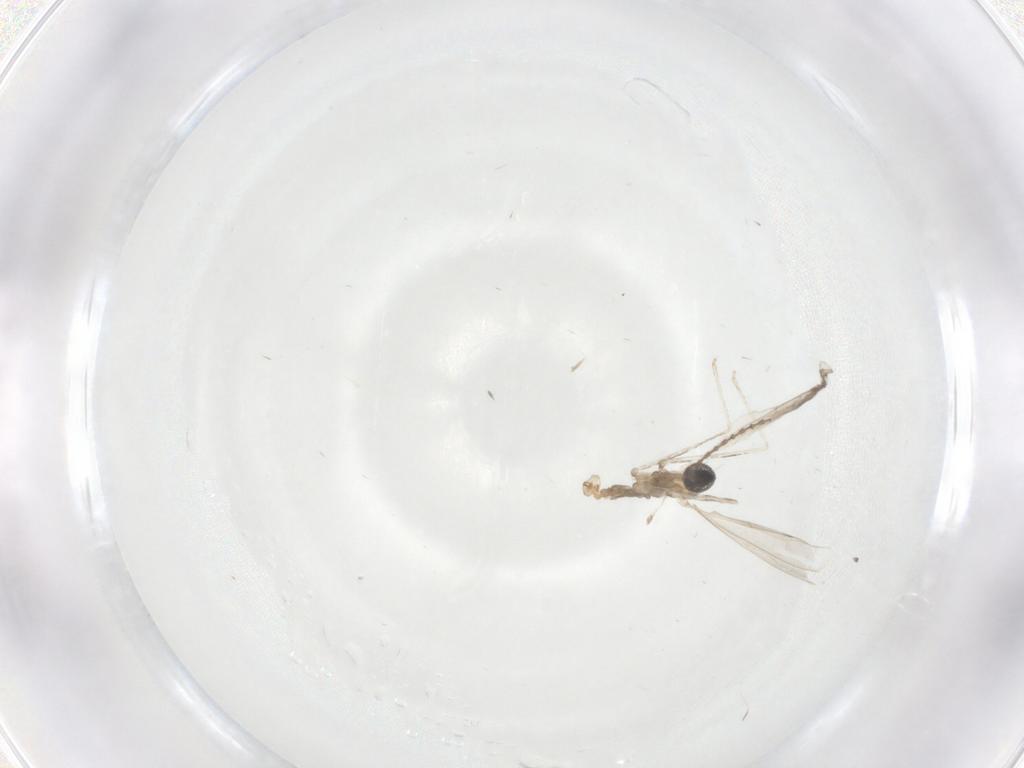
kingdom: Animalia
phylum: Arthropoda
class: Insecta
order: Diptera
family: Cecidomyiidae
